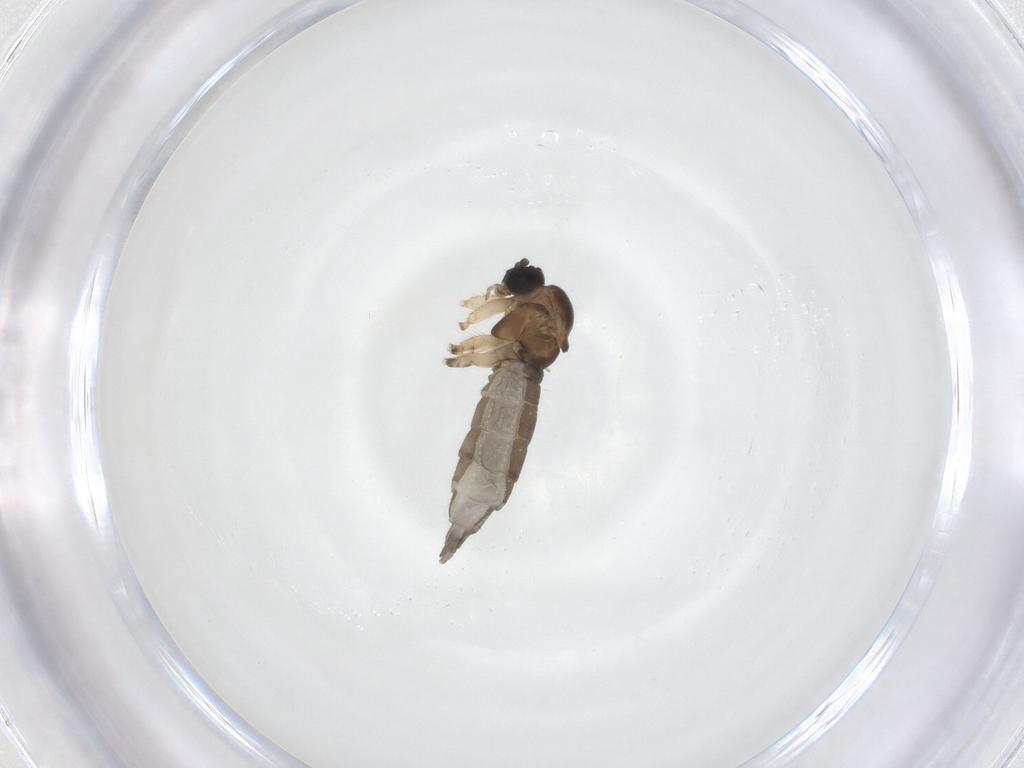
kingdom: Animalia
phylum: Arthropoda
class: Insecta
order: Diptera
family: Sciaridae
